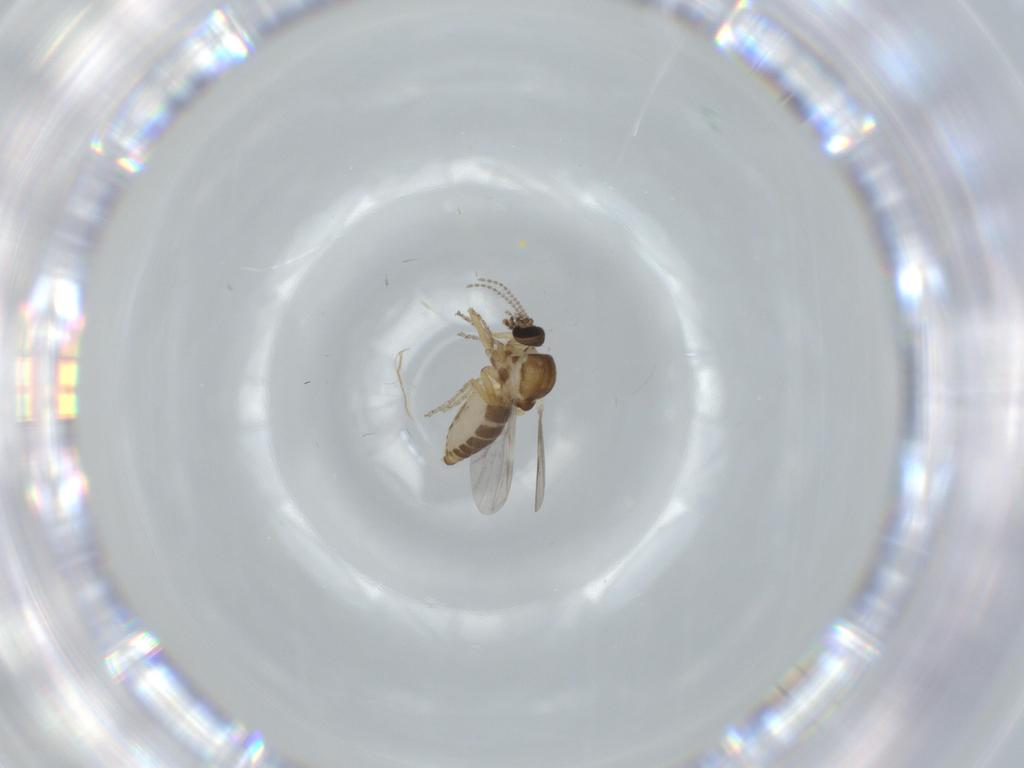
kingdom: Animalia
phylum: Arthropoda
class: Insecta
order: Diptera
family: Ceratopogonidae
